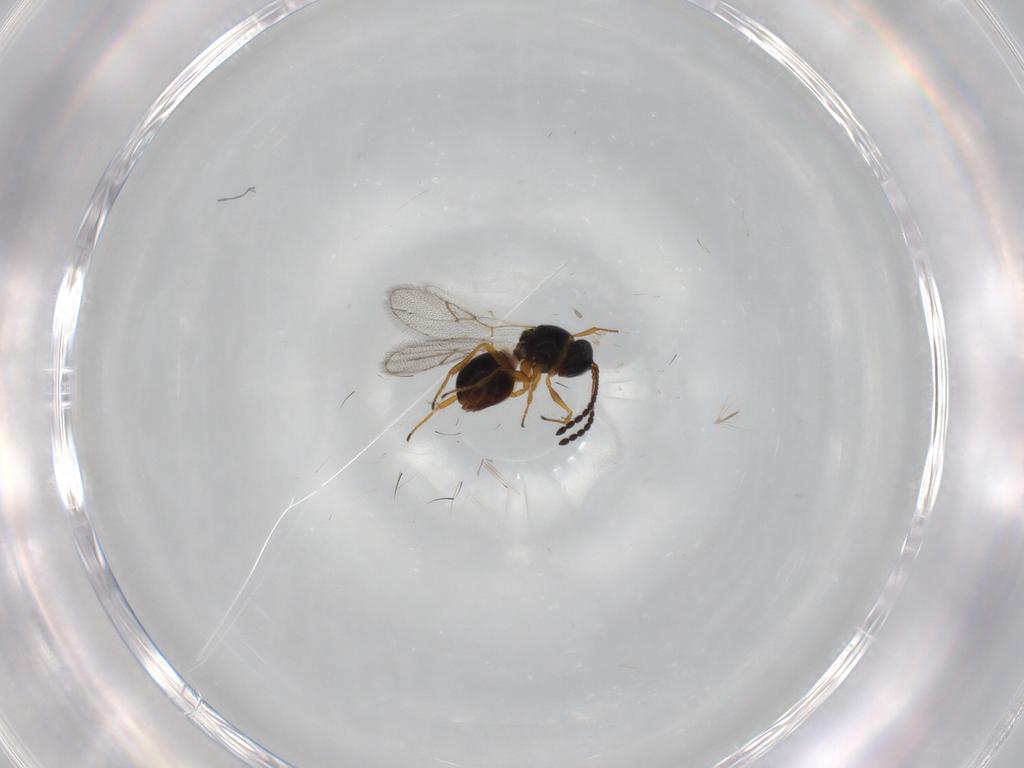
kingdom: Animalia
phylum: Arthropoda
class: Insecta
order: Hymenoptera
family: Figitidae
